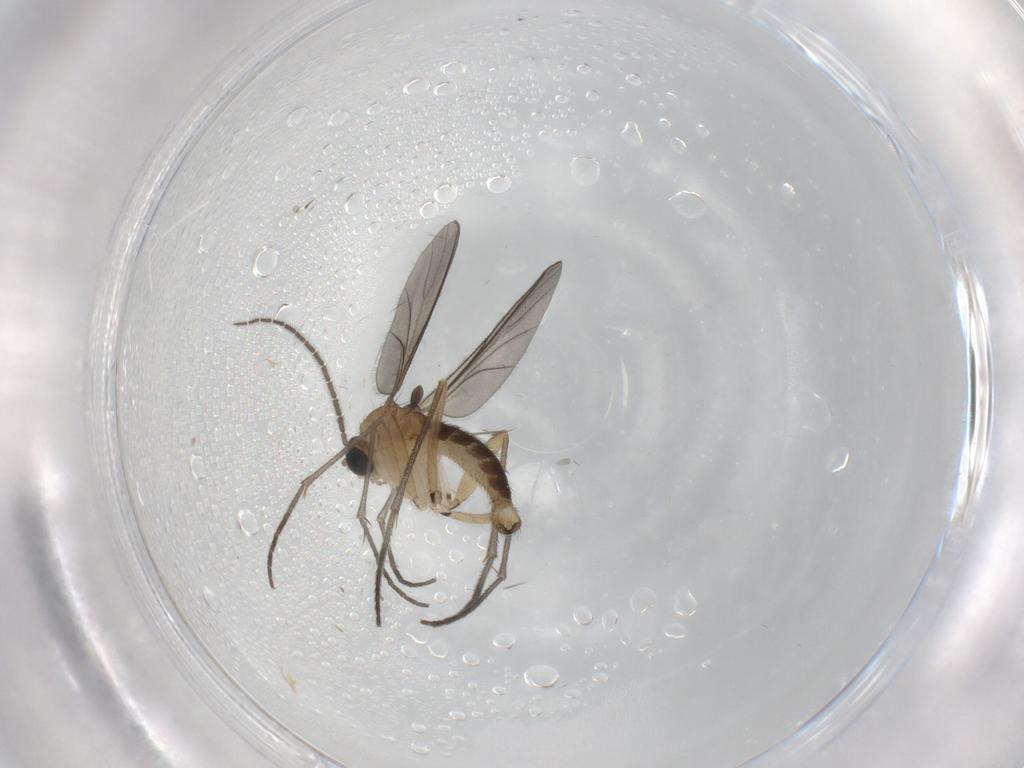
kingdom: Animalia
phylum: Arthropoda
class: Insecta
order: Diptera
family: Sciaridae
